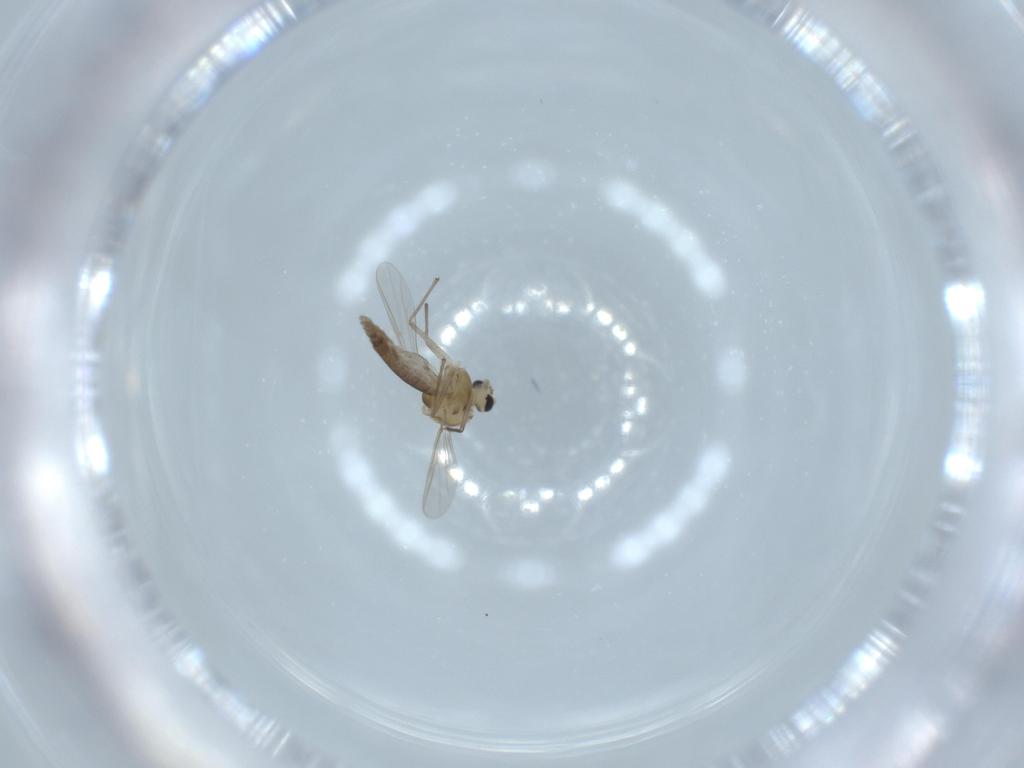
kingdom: Animalia
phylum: Arthropoda
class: Insecta
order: Diptera
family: Chironomidae
